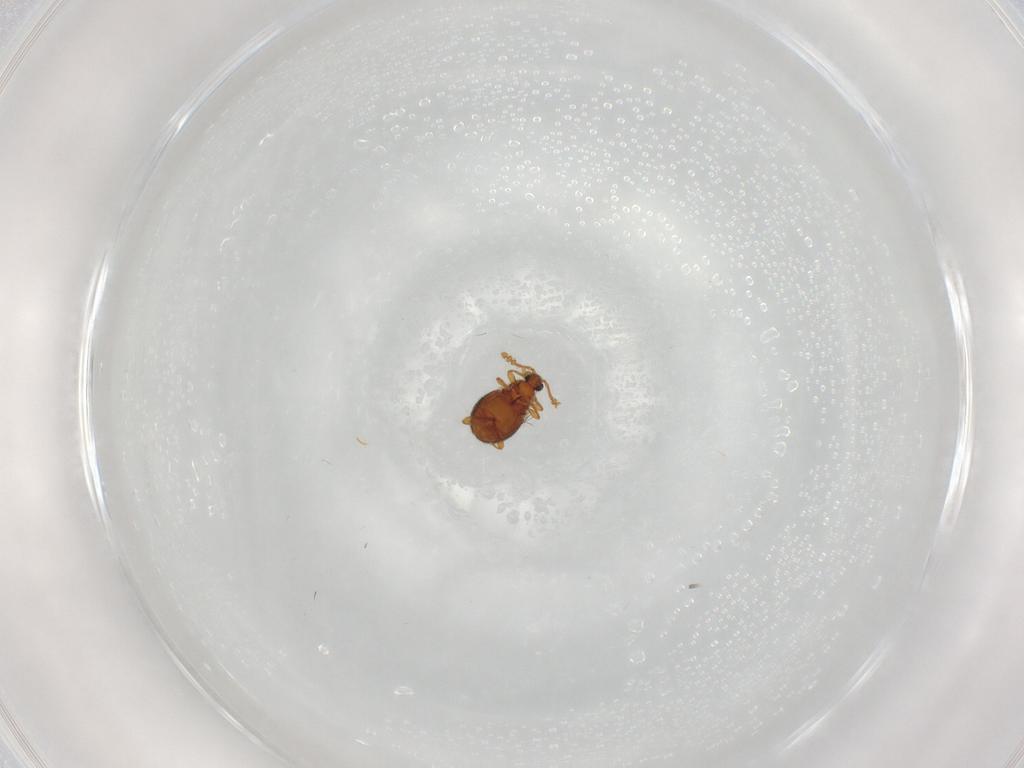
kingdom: Animalia
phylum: Arthropoda
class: Insecta
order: Coleoptera
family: Staphylinidae
